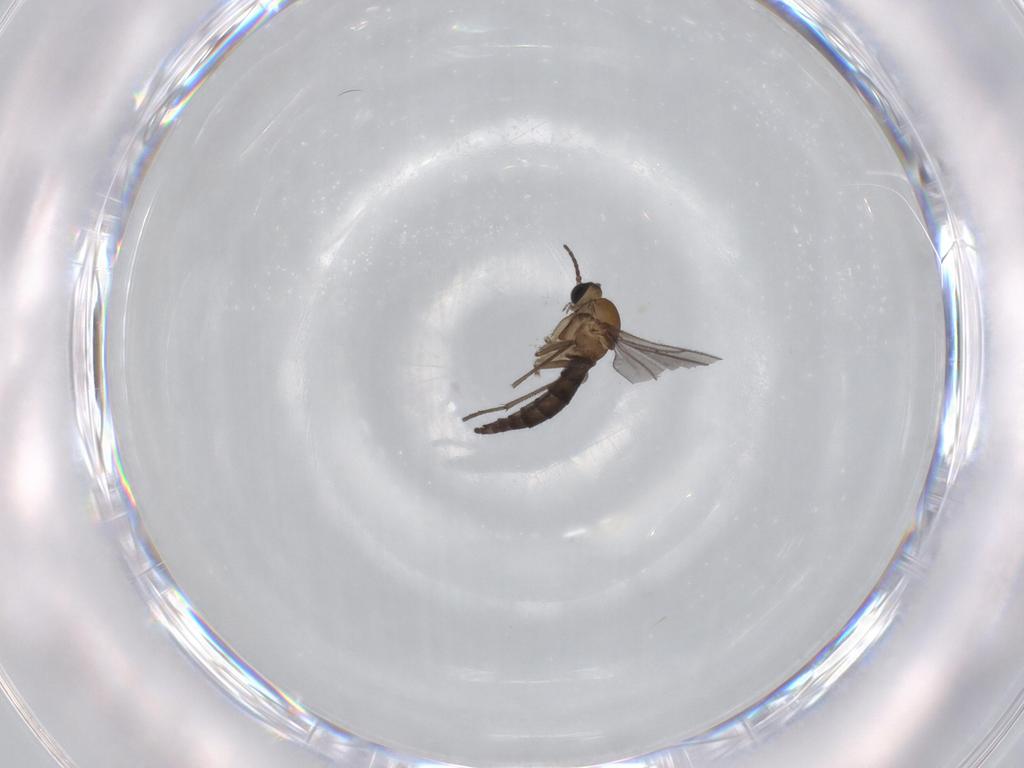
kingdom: Animalia
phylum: Arthropoda
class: Insecta
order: Diptera
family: Sciaridae
